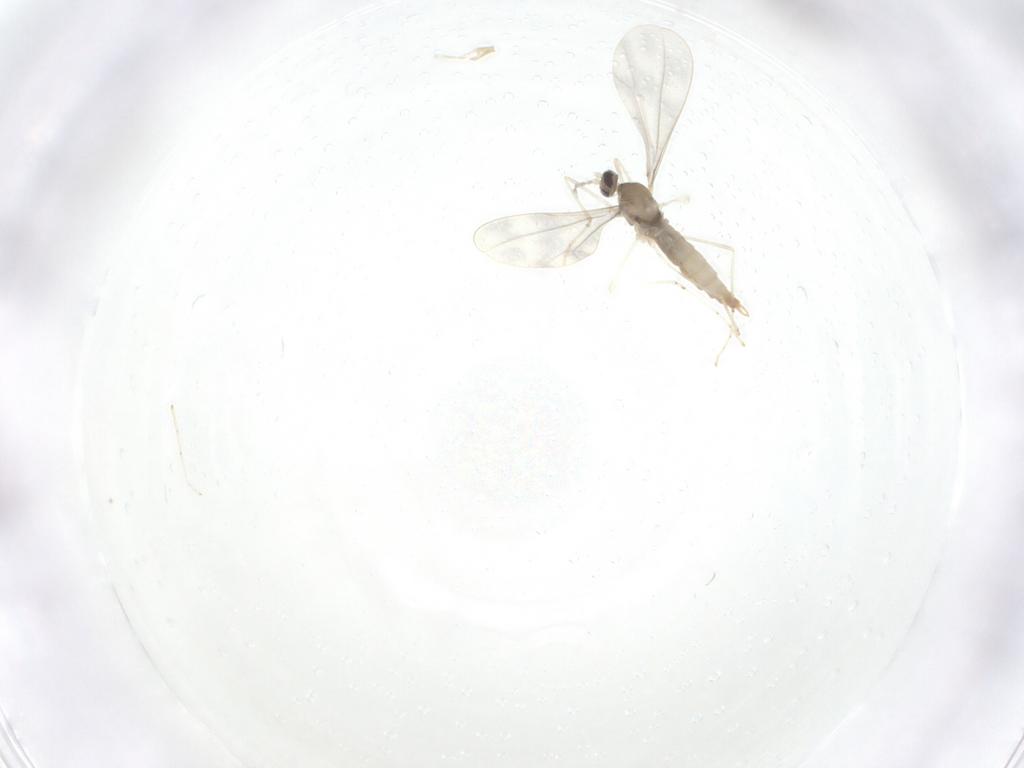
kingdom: Animalia
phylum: Arthropoda
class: Insecta
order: Diptera
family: Cecidomyiidae
